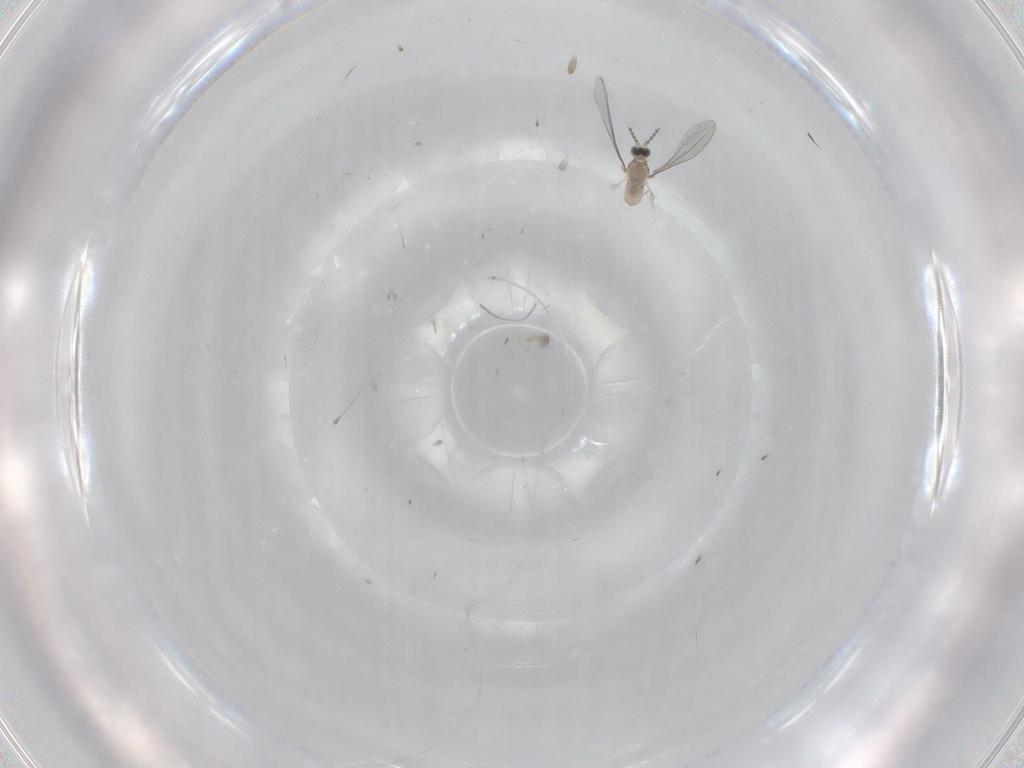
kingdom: Animalia
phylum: Arthropoda
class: Insecta
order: Diptera
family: Cecidomyiidae
